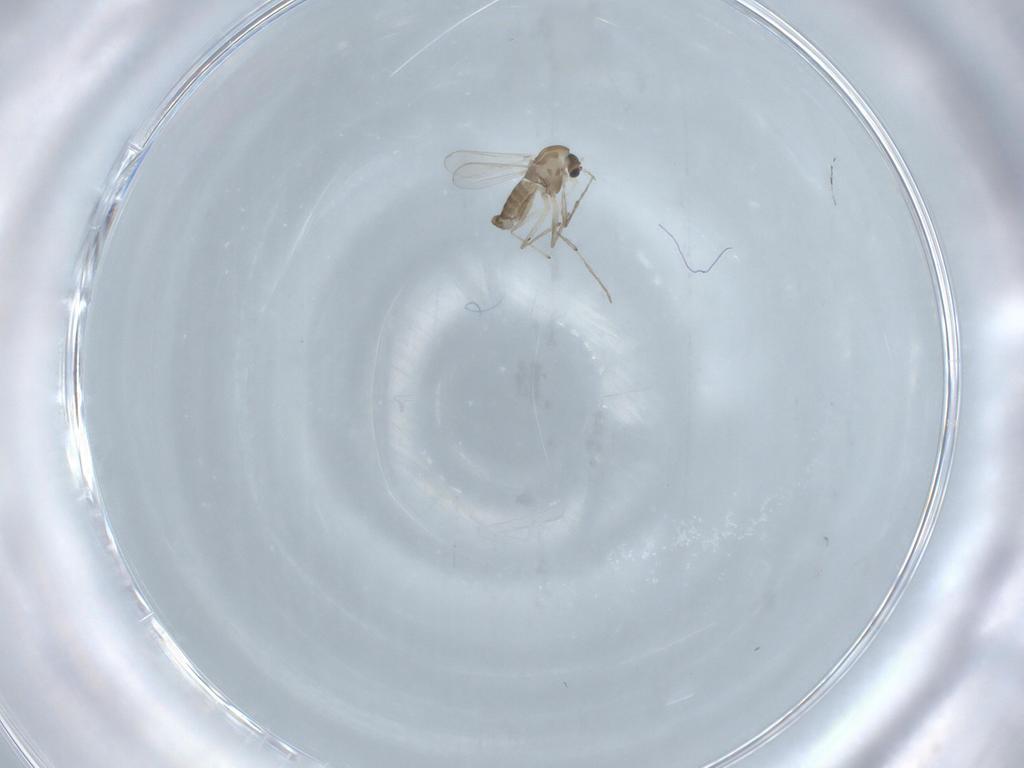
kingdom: Animalia
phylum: Arthropoda
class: Insecta
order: Diptera
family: Chironomidae
